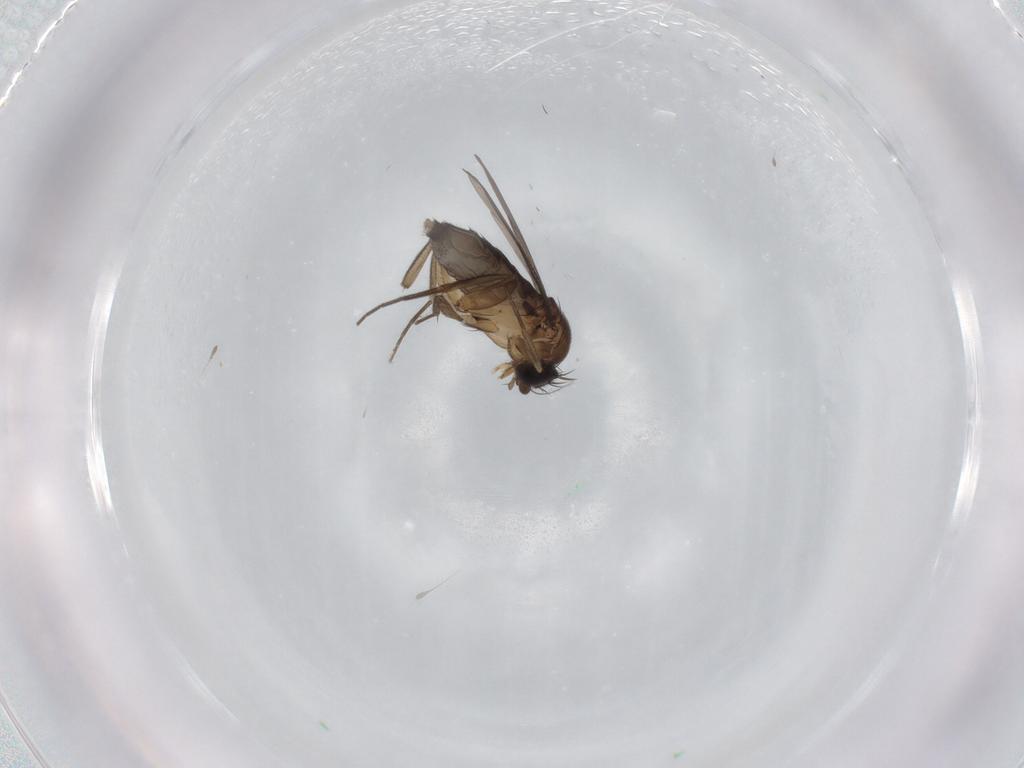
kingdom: Animalia
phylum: Arthropoda
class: Insecta
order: Diptera
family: Phoridae
